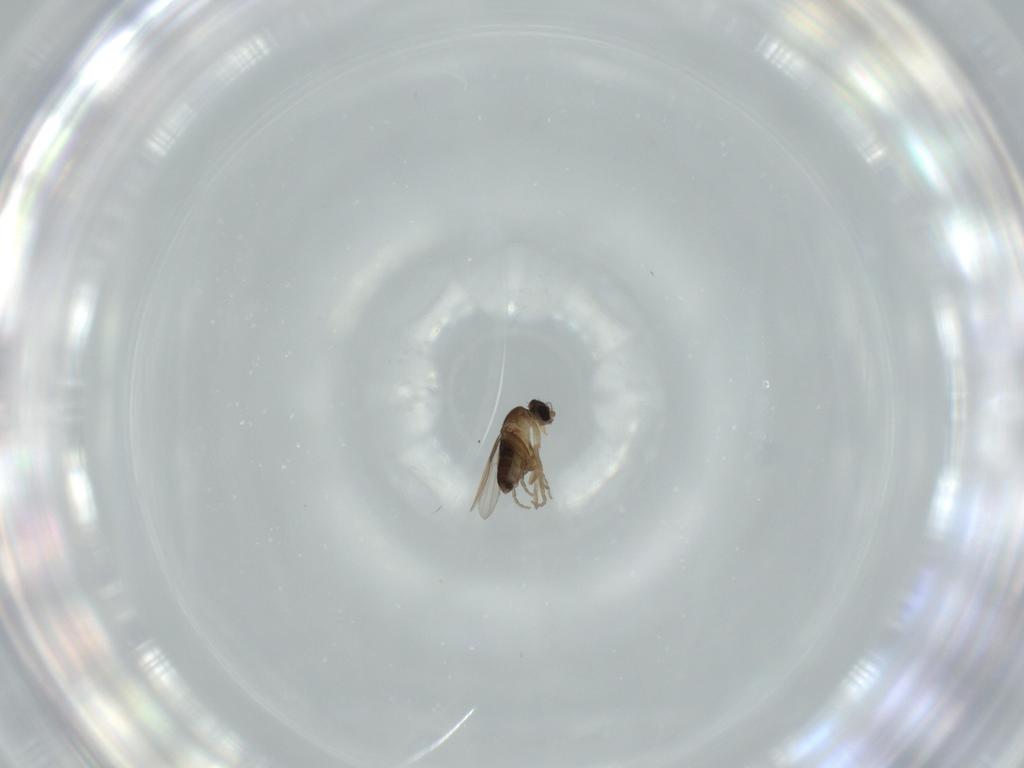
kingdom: Animalia
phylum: Arthropoda
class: Insecta
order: Diptera
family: Phoridae
